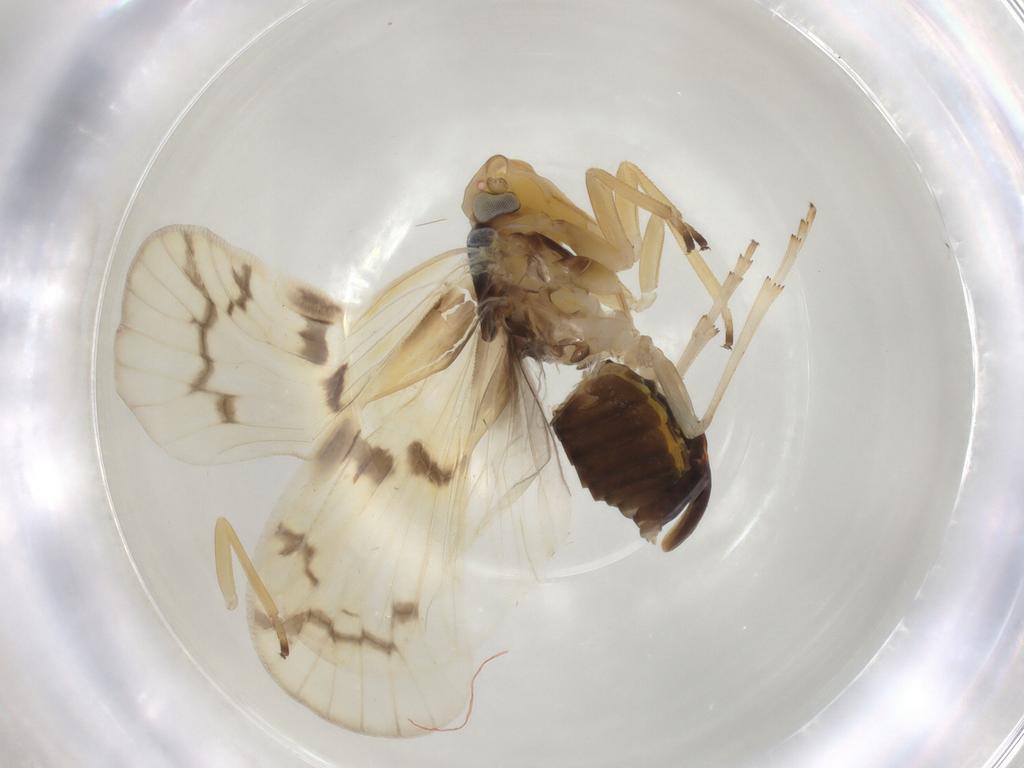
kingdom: Animalia
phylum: Arthropoda
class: Insecta
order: Hemiptera
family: Cixiidae
